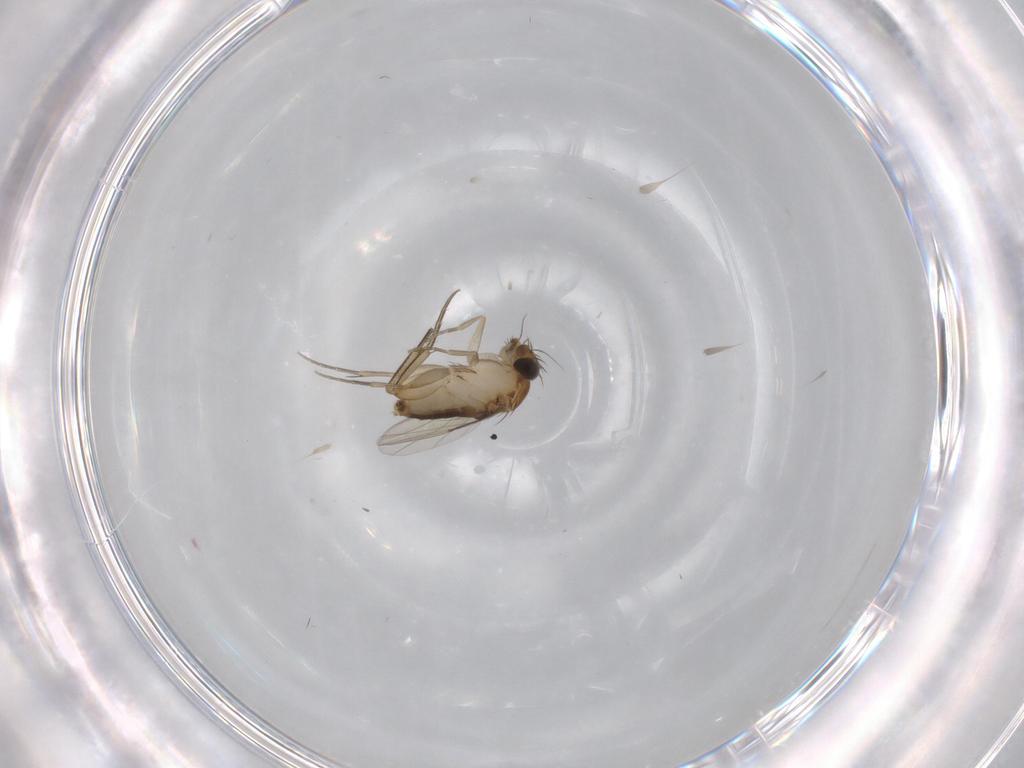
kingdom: Animalia
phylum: Arthropoda
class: Insecta
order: Diptera
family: Phoridae
